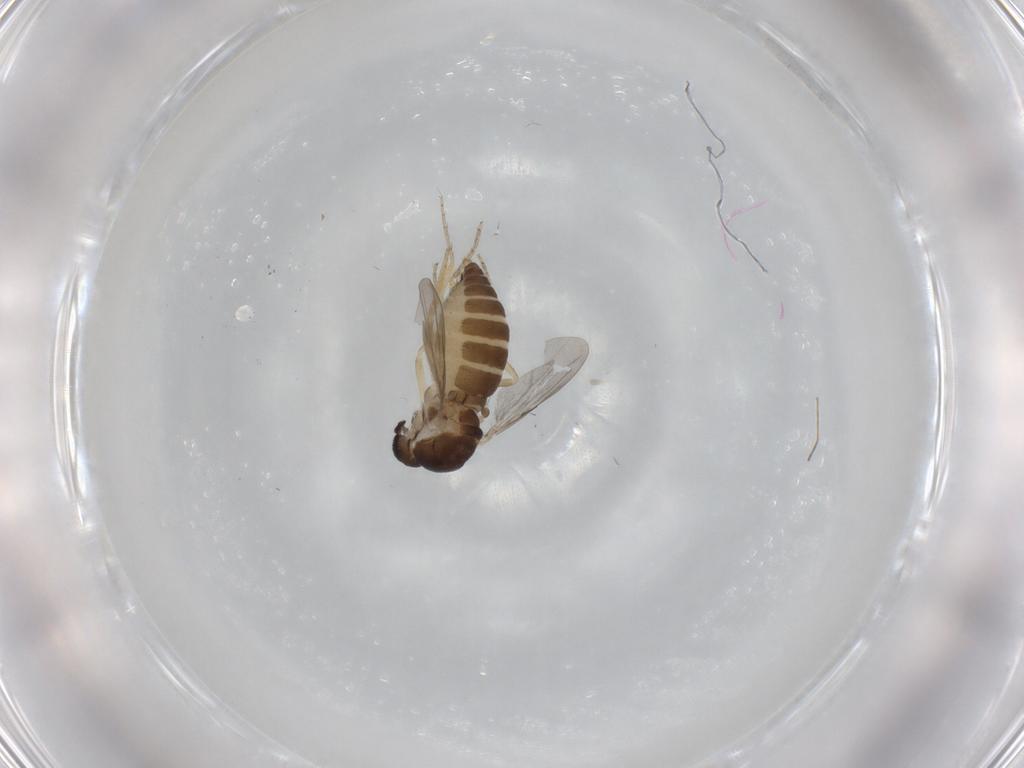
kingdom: Animalia
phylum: Arthropoda
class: Insecta
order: Diptera
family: Ceratopogonidae
